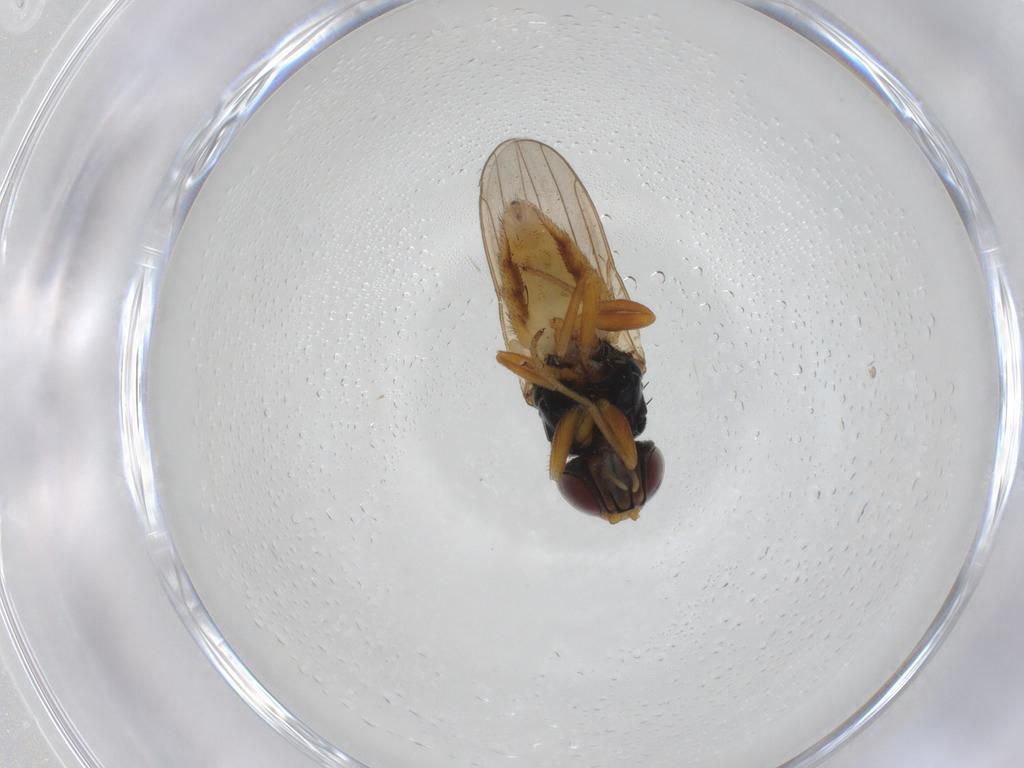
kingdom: Animalia
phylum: Arthropoda
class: Insecta
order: Diptera
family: Chloropidae
